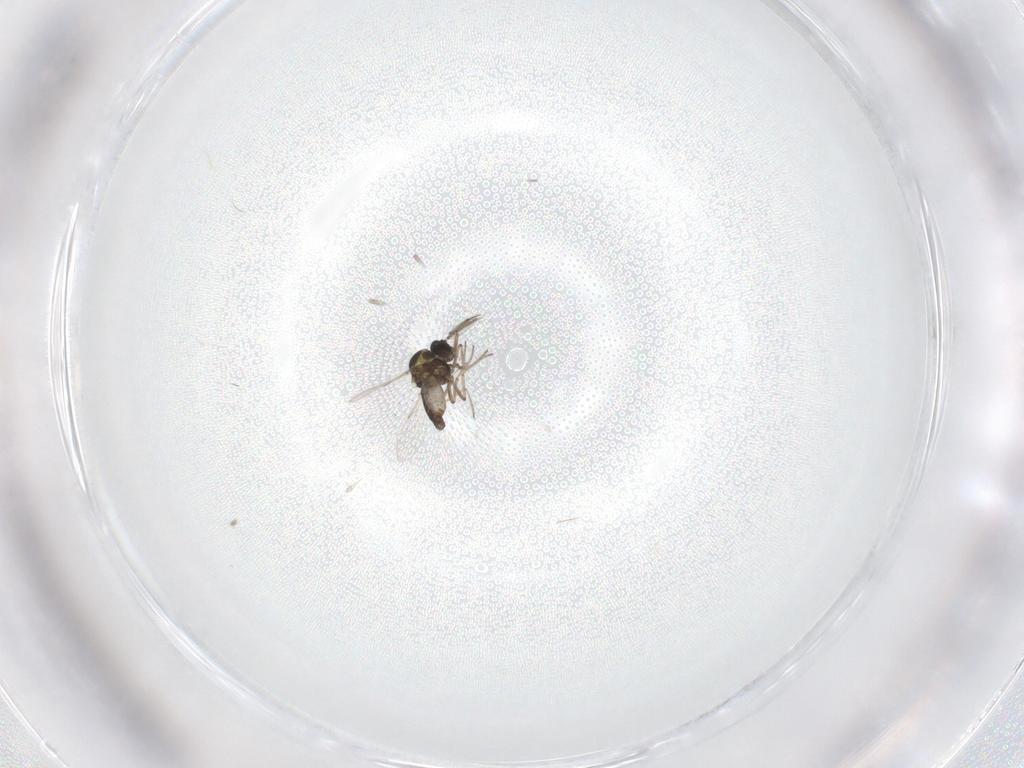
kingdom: Animalia
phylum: Arthropoda
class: Insecta
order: Diptera
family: Ceratopogonidae
